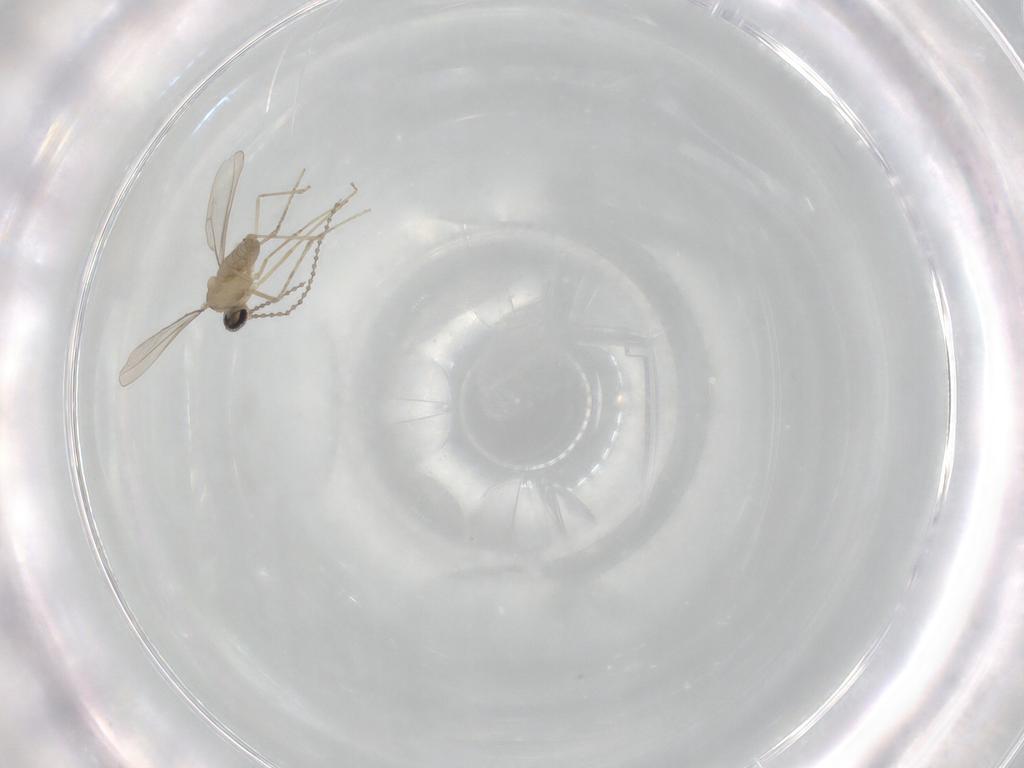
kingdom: Animalia
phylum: Arthropoda
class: Insecta
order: Diptera
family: Cecidomyiidae
